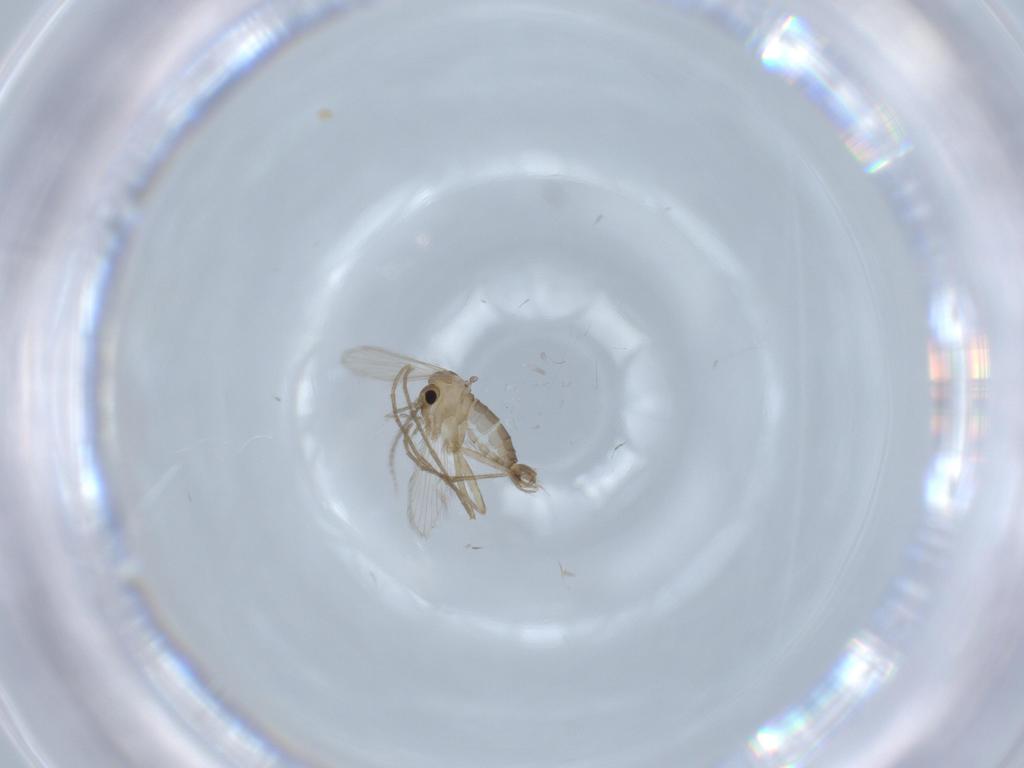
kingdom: Animalia
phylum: Arthropoda
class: Insecta
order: Diptera
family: Psychodidae
